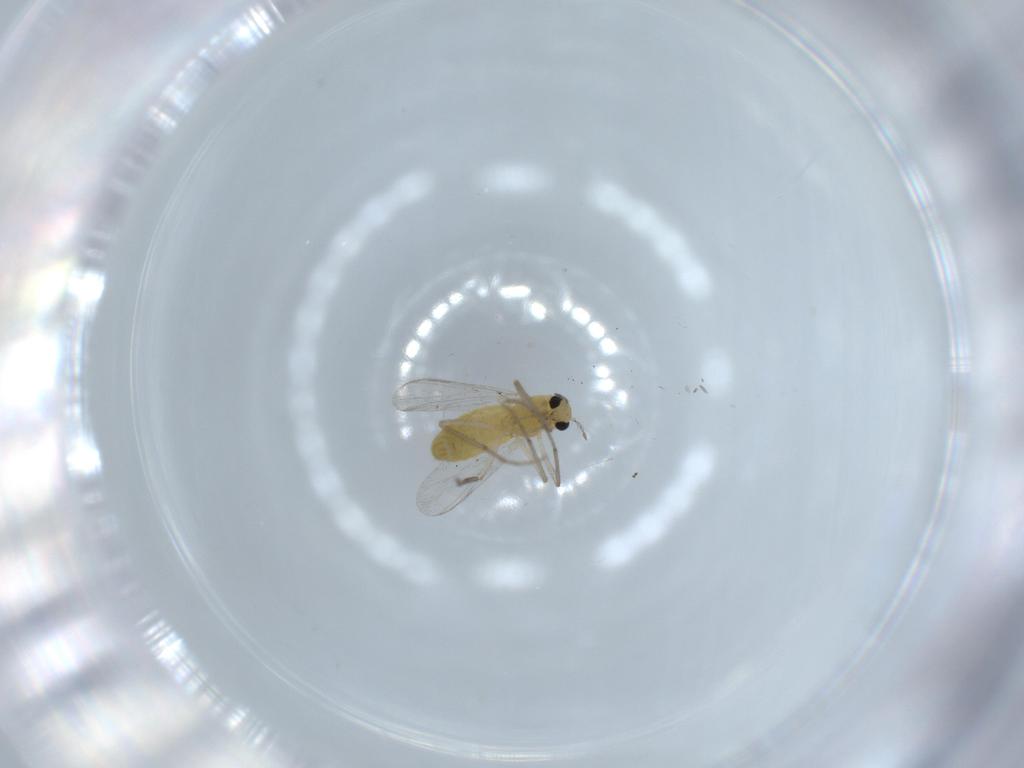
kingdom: Animalia
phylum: Arthropoda
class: Insecta
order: Diptera
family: Chironomidae
